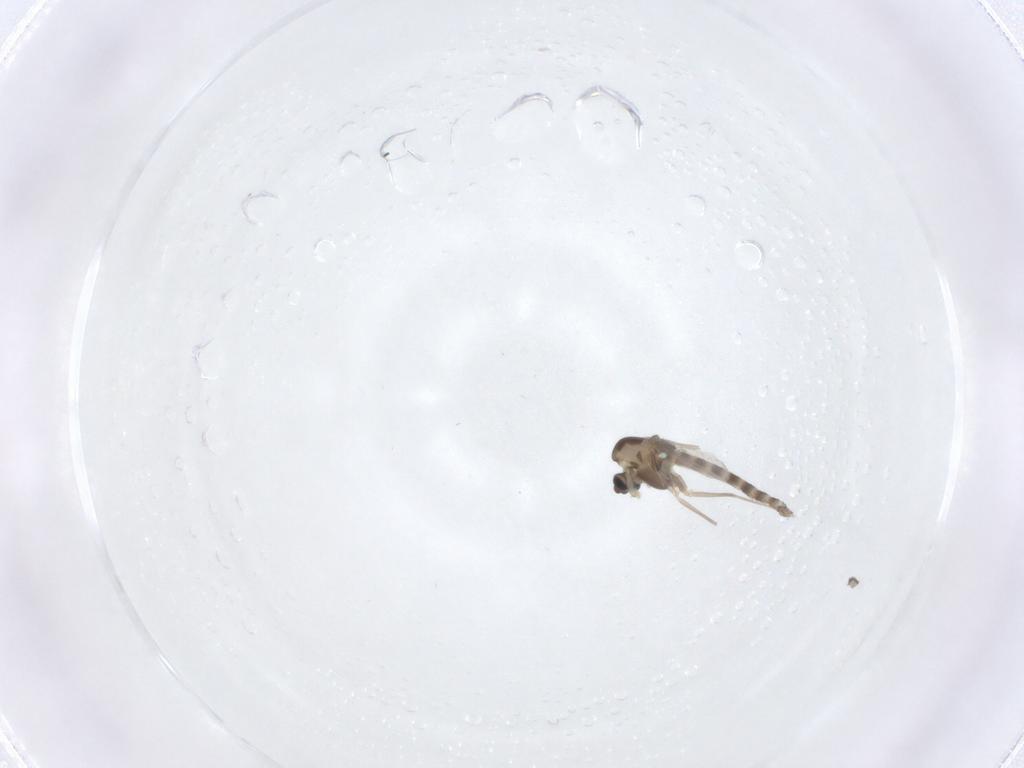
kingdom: Animalia
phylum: Arthropoda
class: Insecta
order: Diptera
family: Chironomidae
